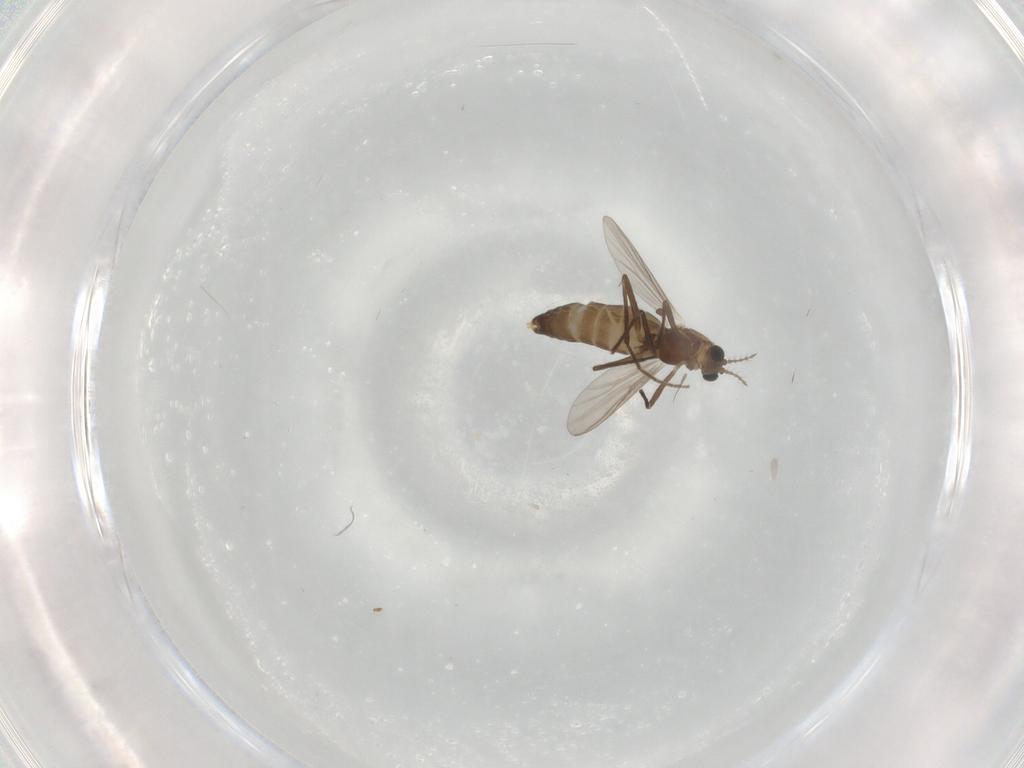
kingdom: Animalia
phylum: Arthropoda
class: Insecta
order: Diptera
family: Chironomidae
